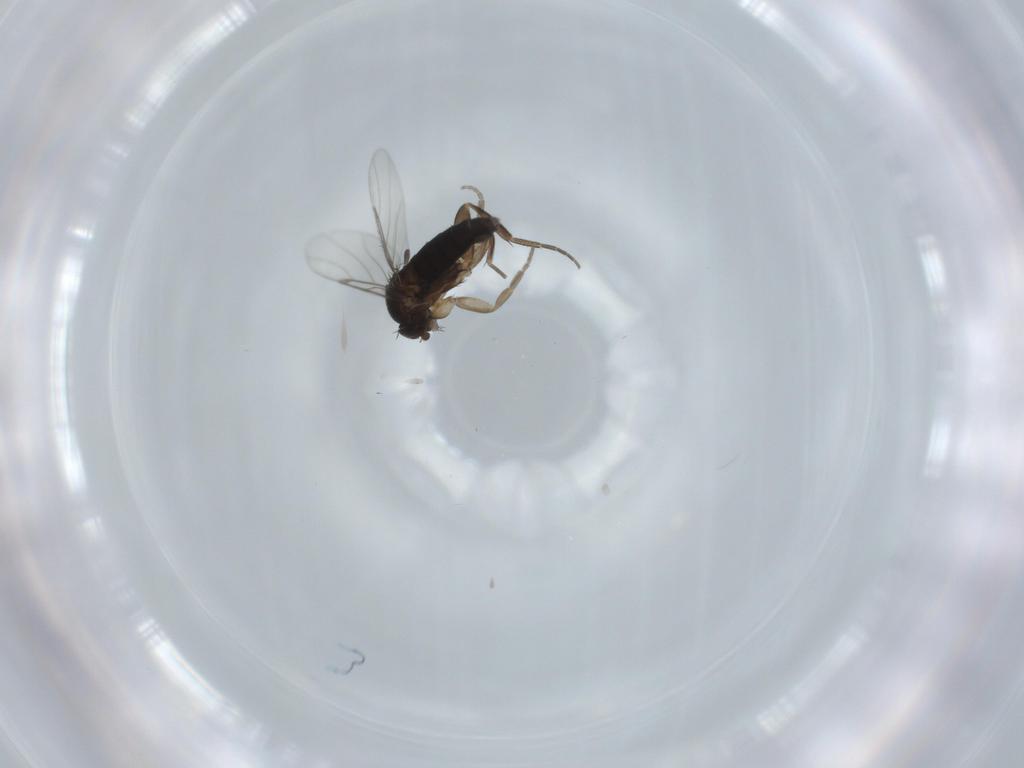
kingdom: Animalia
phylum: Arthropoda
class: Insecta
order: Diptera
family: Phoridae
